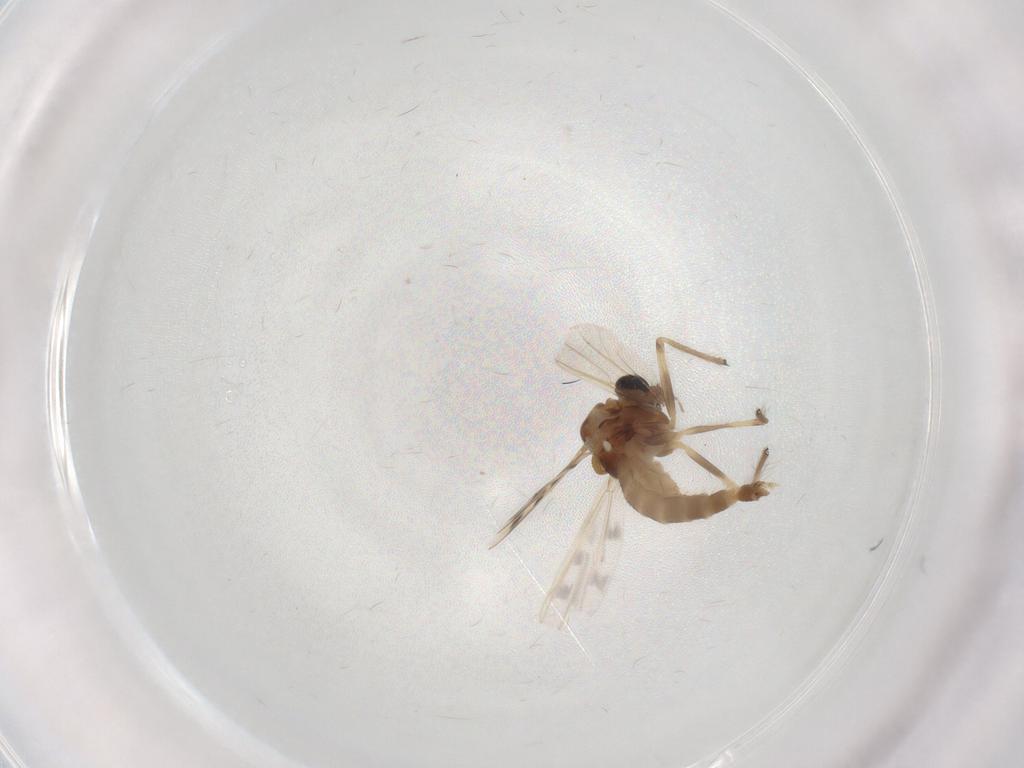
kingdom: Animalia
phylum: Arthropoda
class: Insecta
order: Diptera
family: Chironomidae
